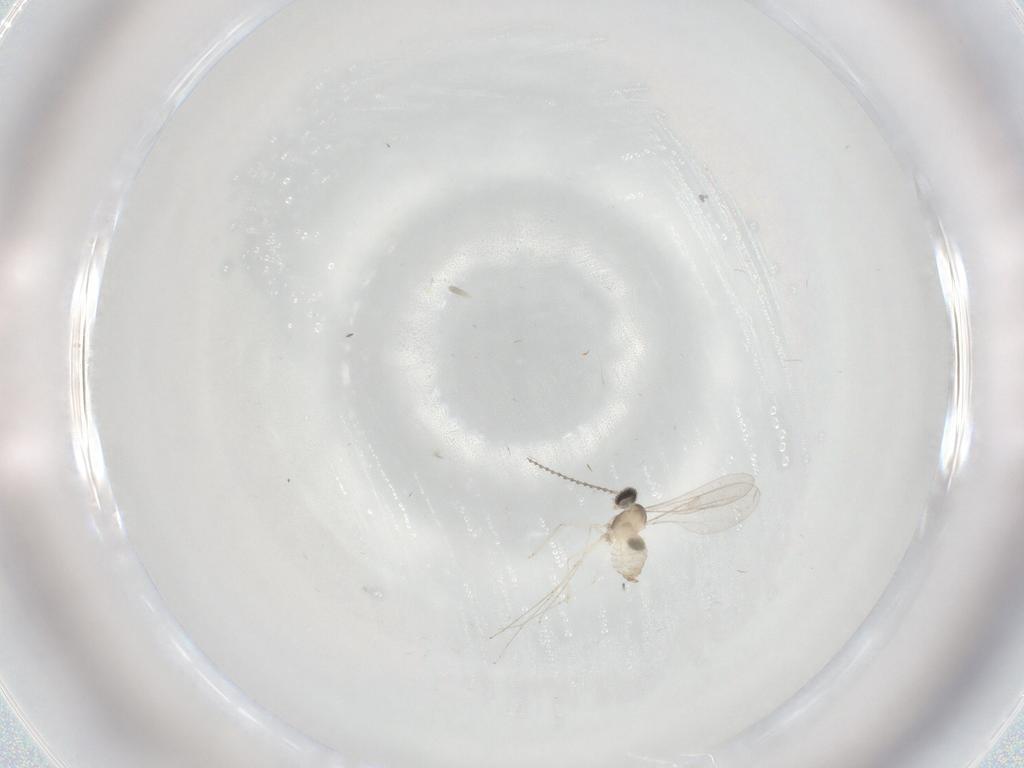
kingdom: Animalia
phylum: Arthropoda
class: Insecta
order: Diptera
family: Cecidomyiidae
